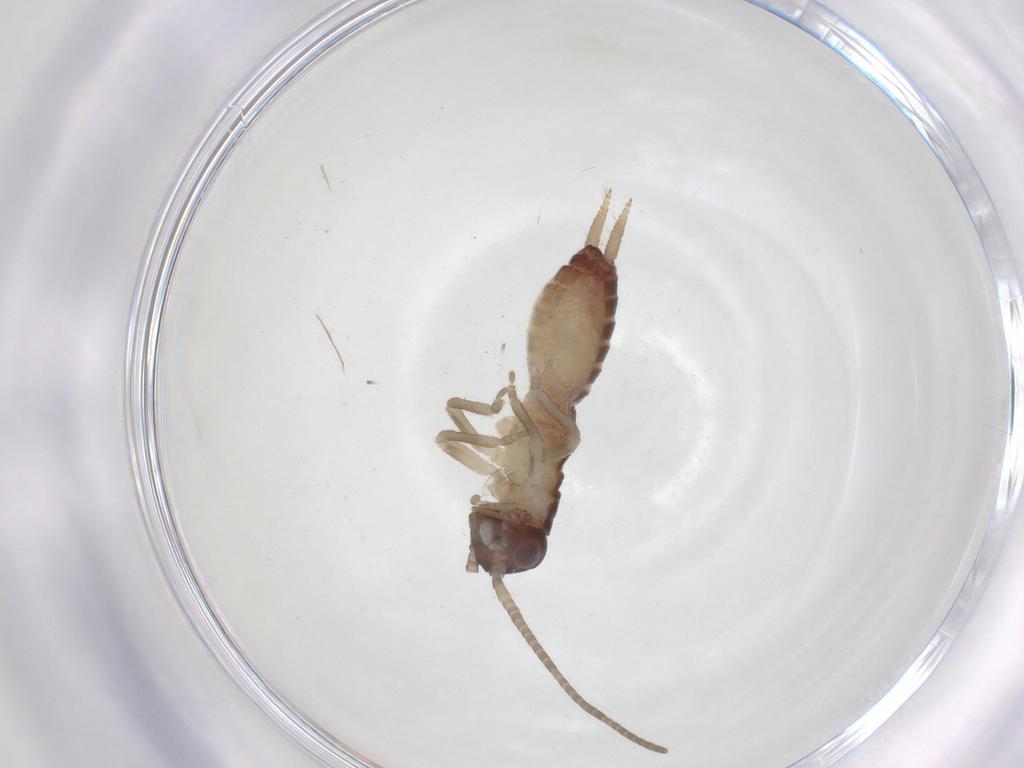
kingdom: Animalia
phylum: Arthropoda
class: Insecta
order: Orthoptera
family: Gryllidae
